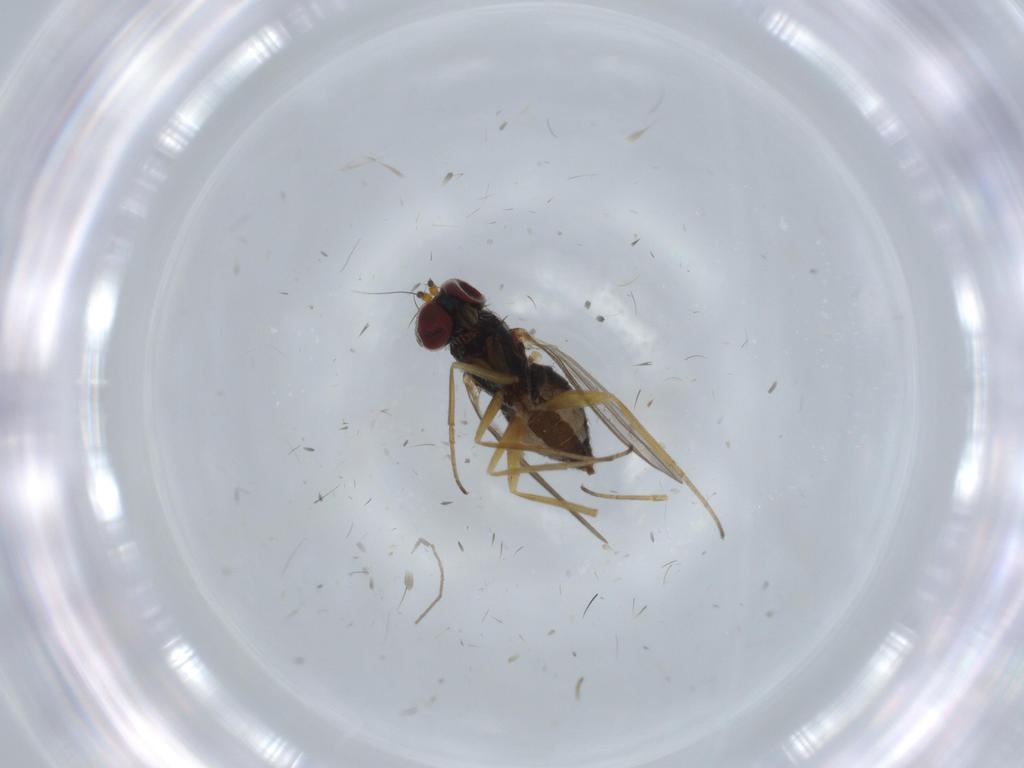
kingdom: Animalia
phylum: Arthropoda
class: Insecta
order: Diptera
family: Dolichopodidae
